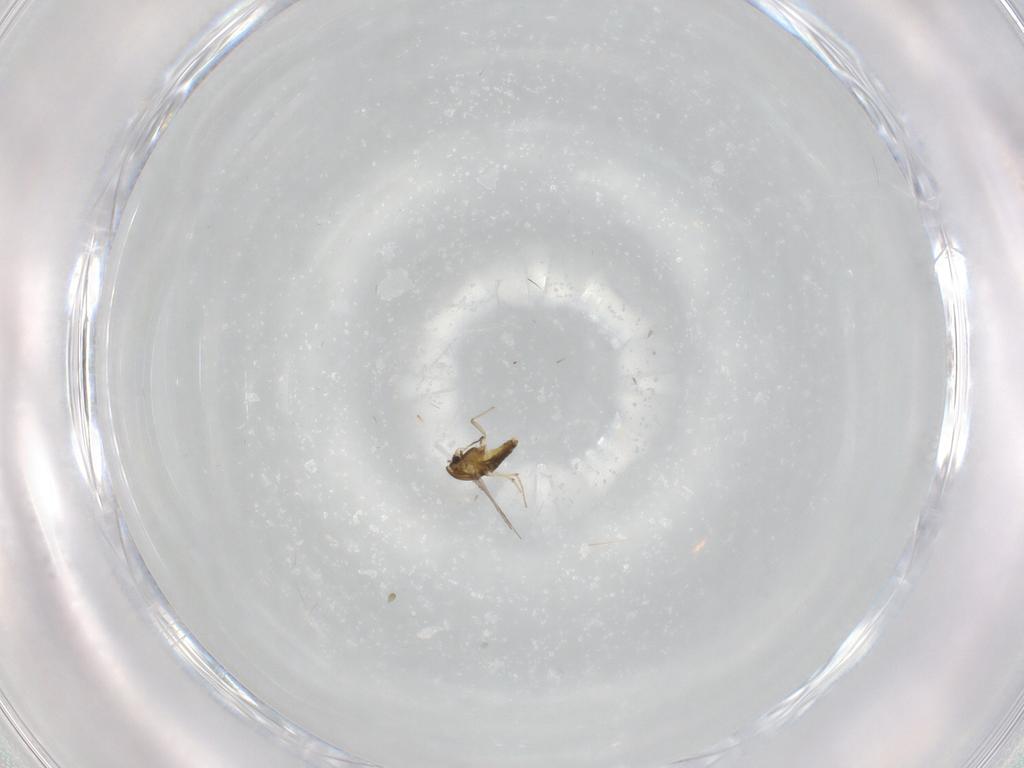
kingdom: Animalia
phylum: Arthropoda
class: Insecta
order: Diptera
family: Chironomidae
